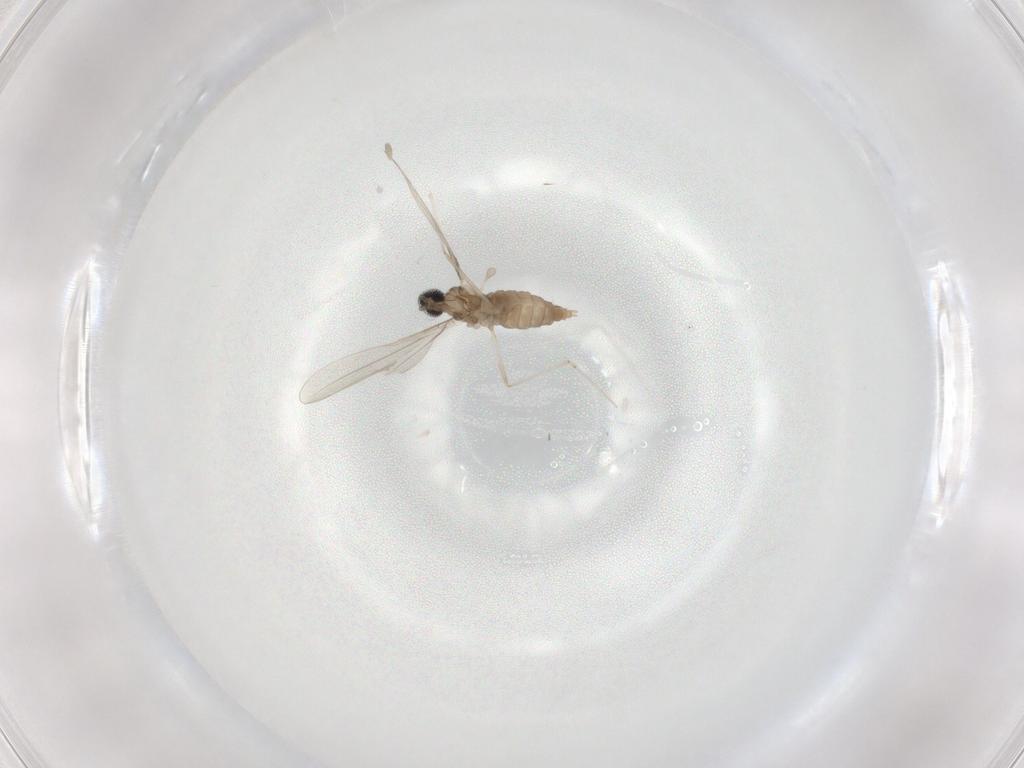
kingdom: Animalia
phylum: Arthropoda
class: Insecta
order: Diptera
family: Cecidomyiidae
